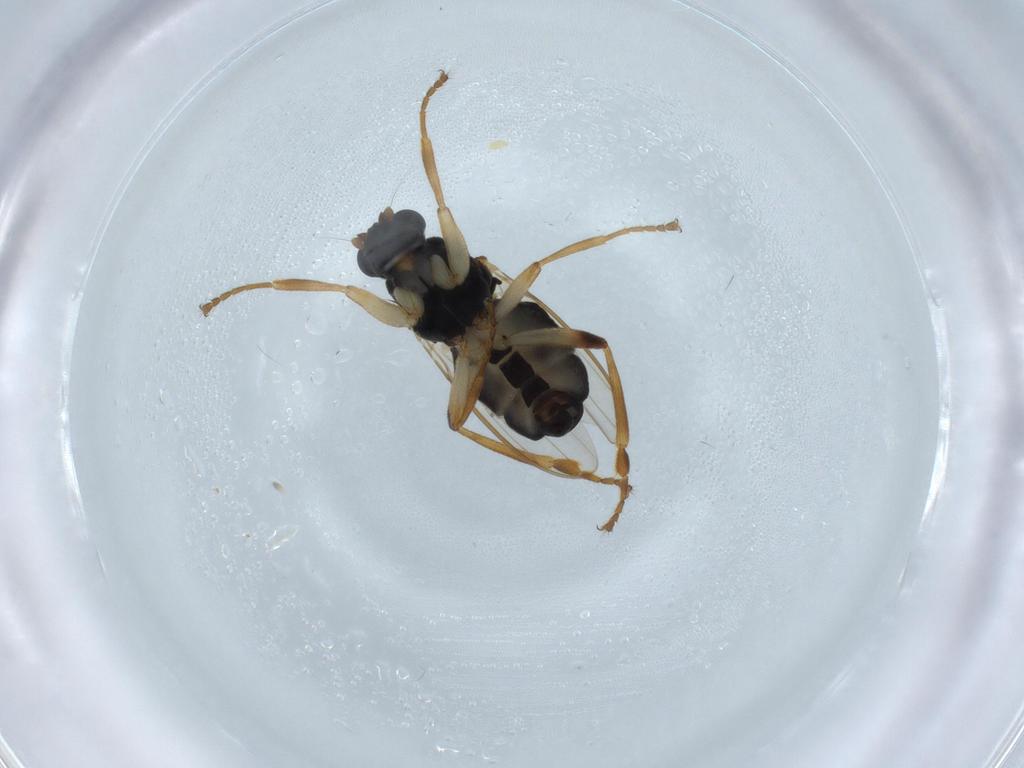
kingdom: Animalia
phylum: Arthropoda
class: Insecta
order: Diptera
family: Sphaeroceridae
